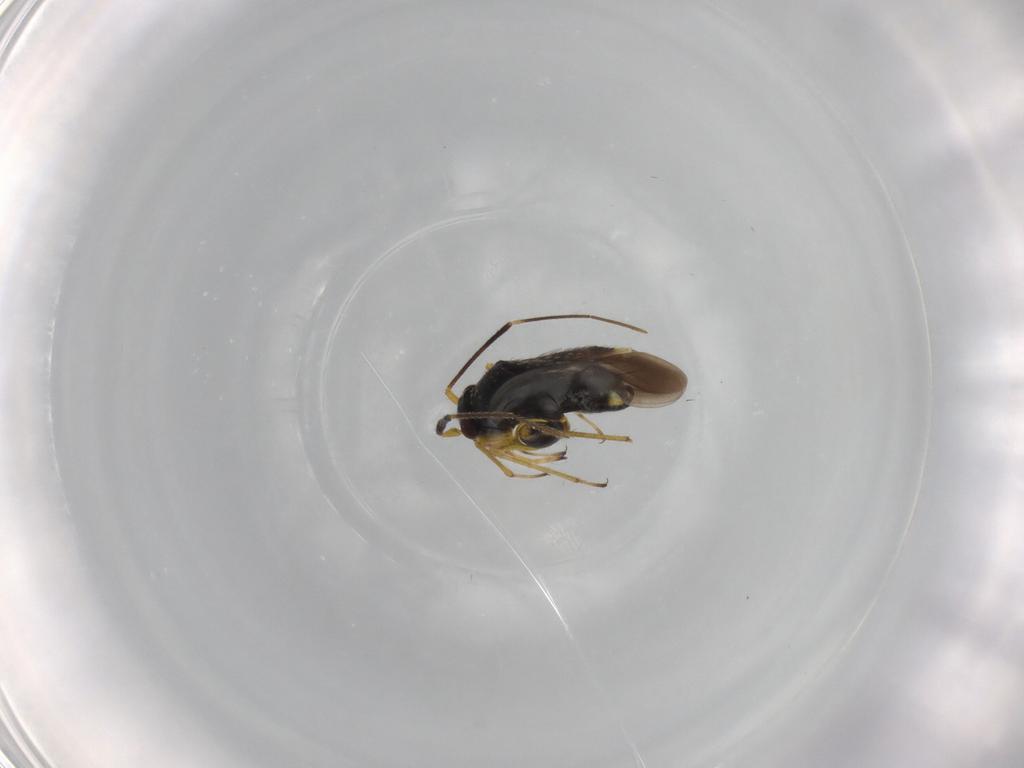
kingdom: Animalia
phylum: Arthropoda
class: Insecta
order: Hemiptera
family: Miridae
